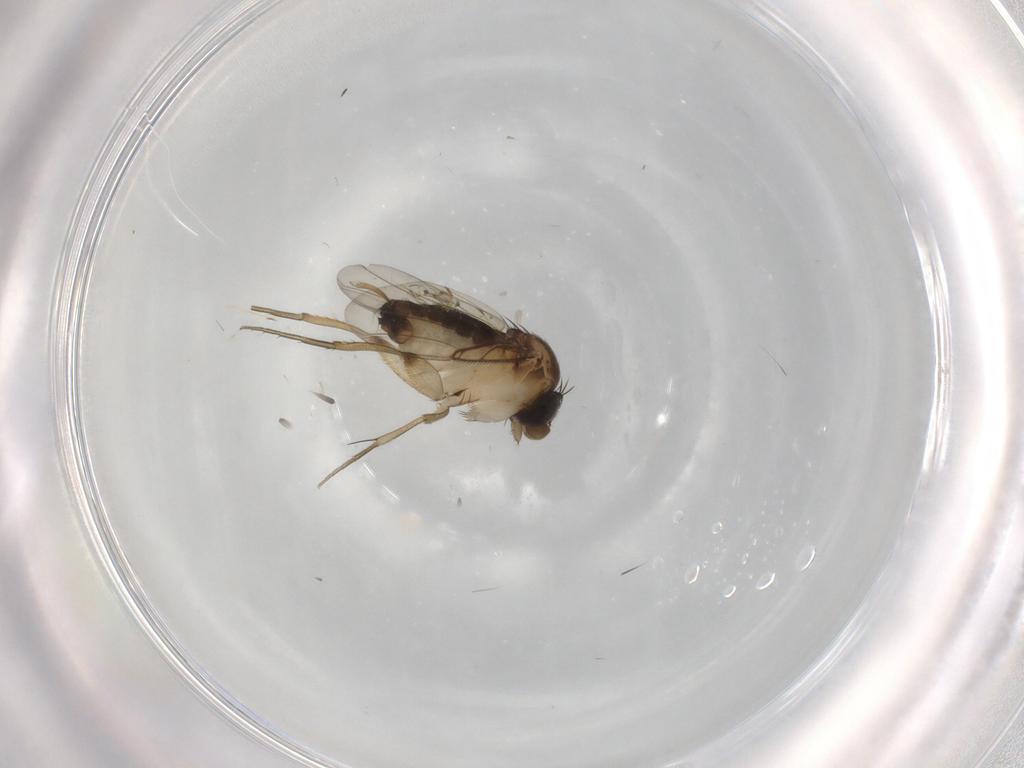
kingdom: Animalia
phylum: Arthropoda
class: Insecta
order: Diptera
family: Phoridae
